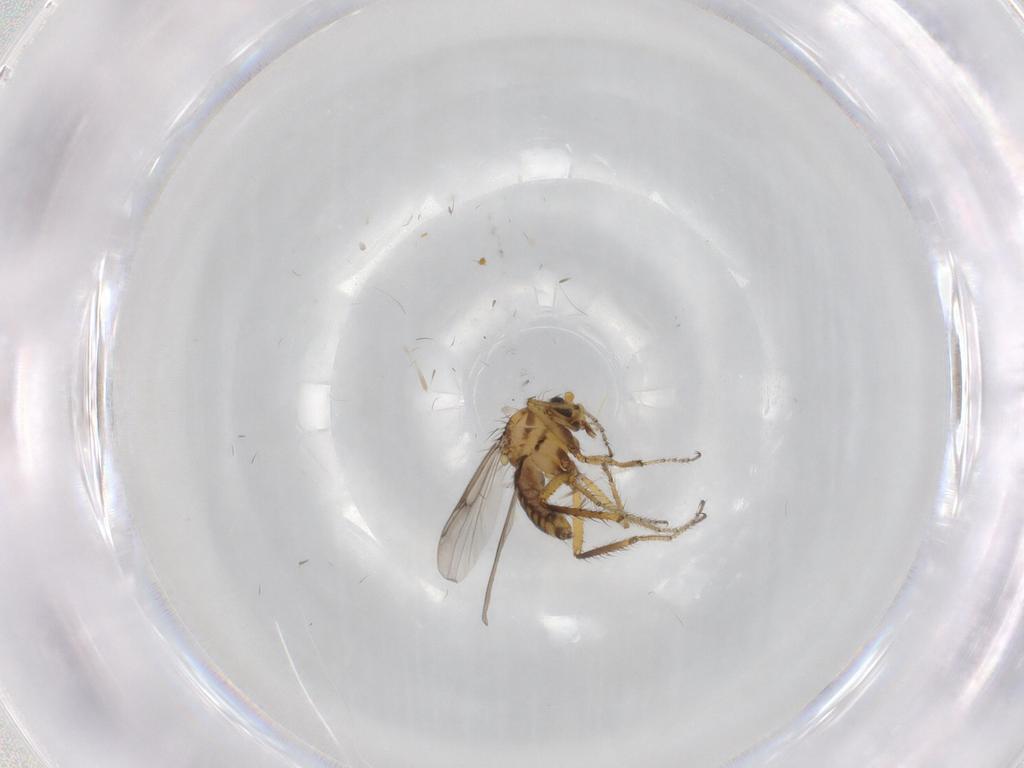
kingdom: Animalia
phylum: Arthropoda
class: Insecta
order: Diptera
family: Ceratopogonidae
